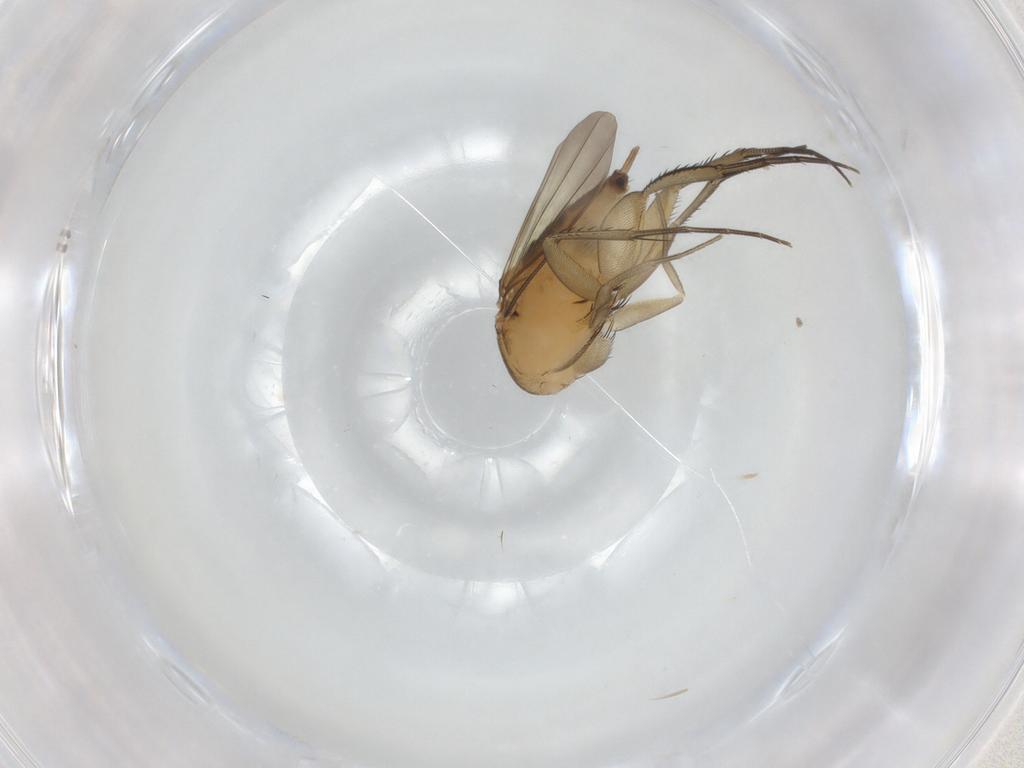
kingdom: Animalia
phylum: Arthropoda
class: Insecta
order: Diptera
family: Phoridae
